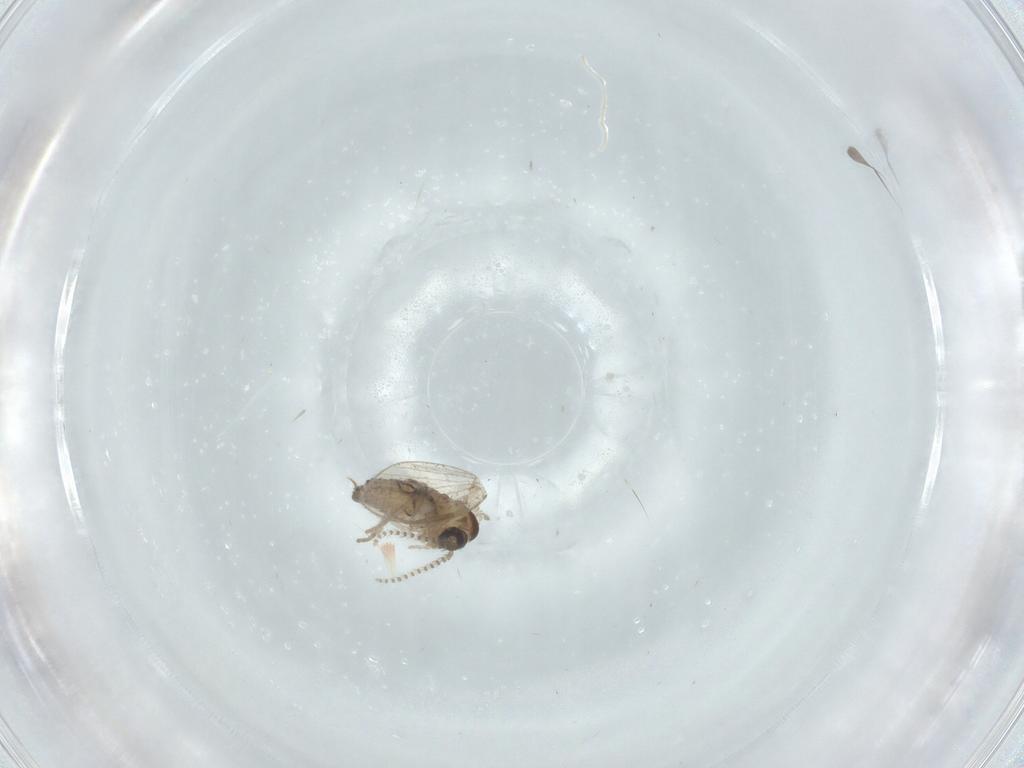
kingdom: Animalia
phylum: Arthropoda
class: Insecta
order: Diptera
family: Psychodidae
